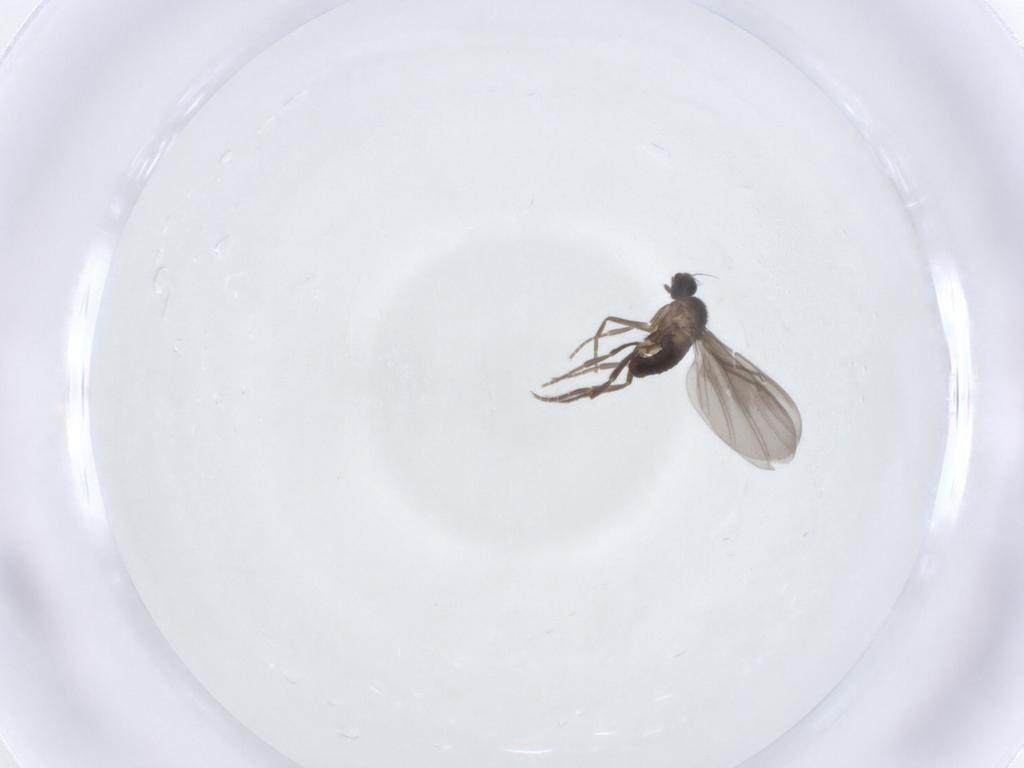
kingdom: Animalia
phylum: Arthropoda
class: Insecta
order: Diptera
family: Phoridae
